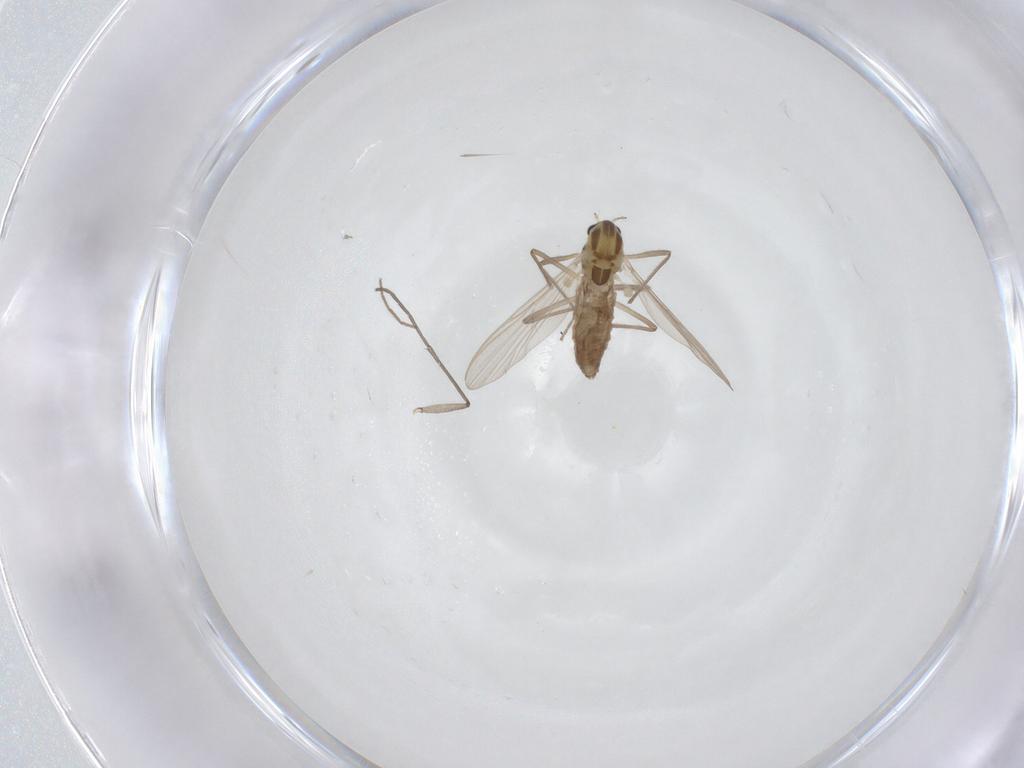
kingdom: Animalia
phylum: Arthropoda
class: Insecta
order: Diptera
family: Chironomidae
